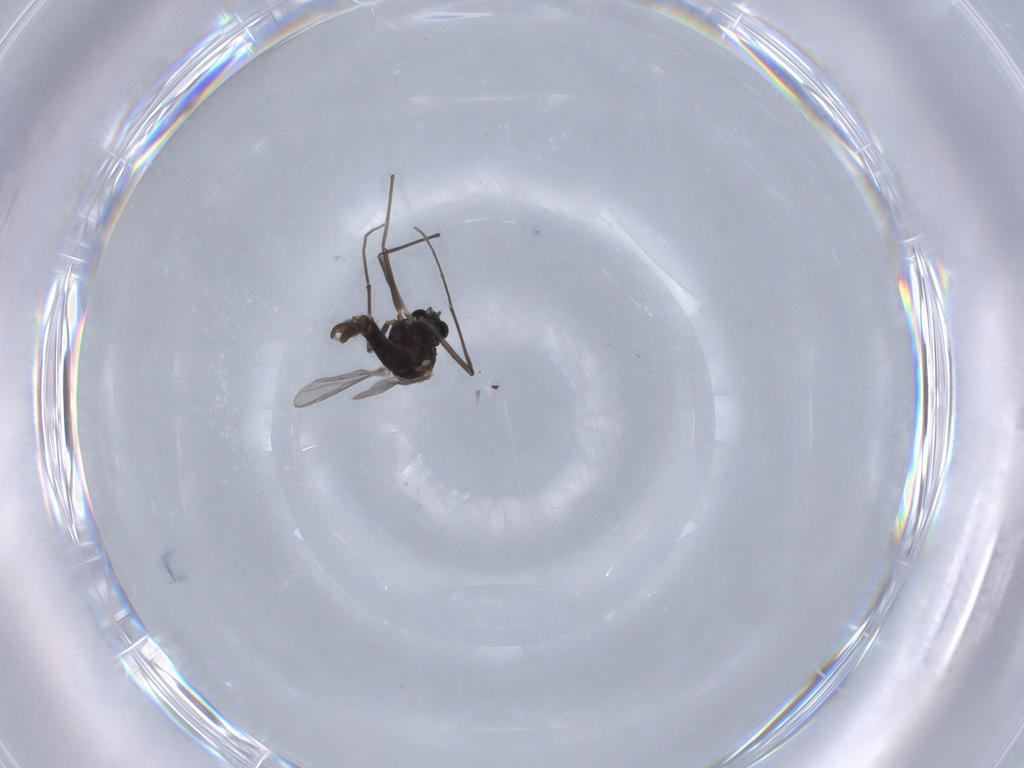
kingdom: Animalia
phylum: Arthropoda
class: Insecta
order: Diptera
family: Chironomidae
